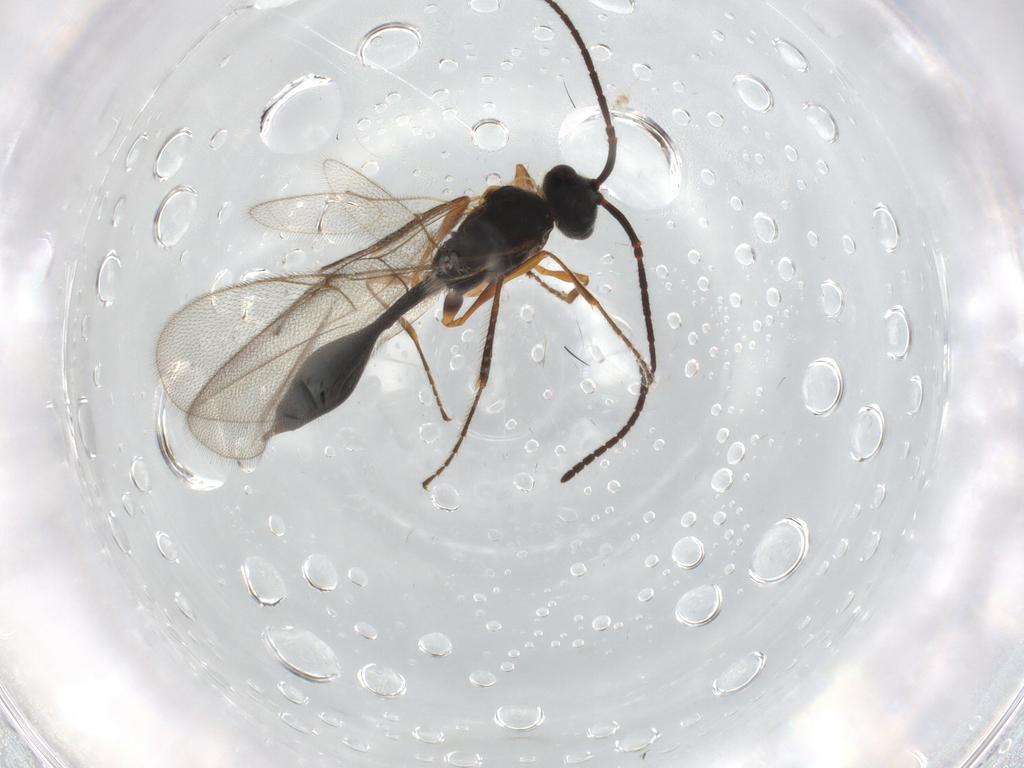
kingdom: Animalia
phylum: Arthropoda
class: Insecta
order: Hymenoptera
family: Diapriidae
